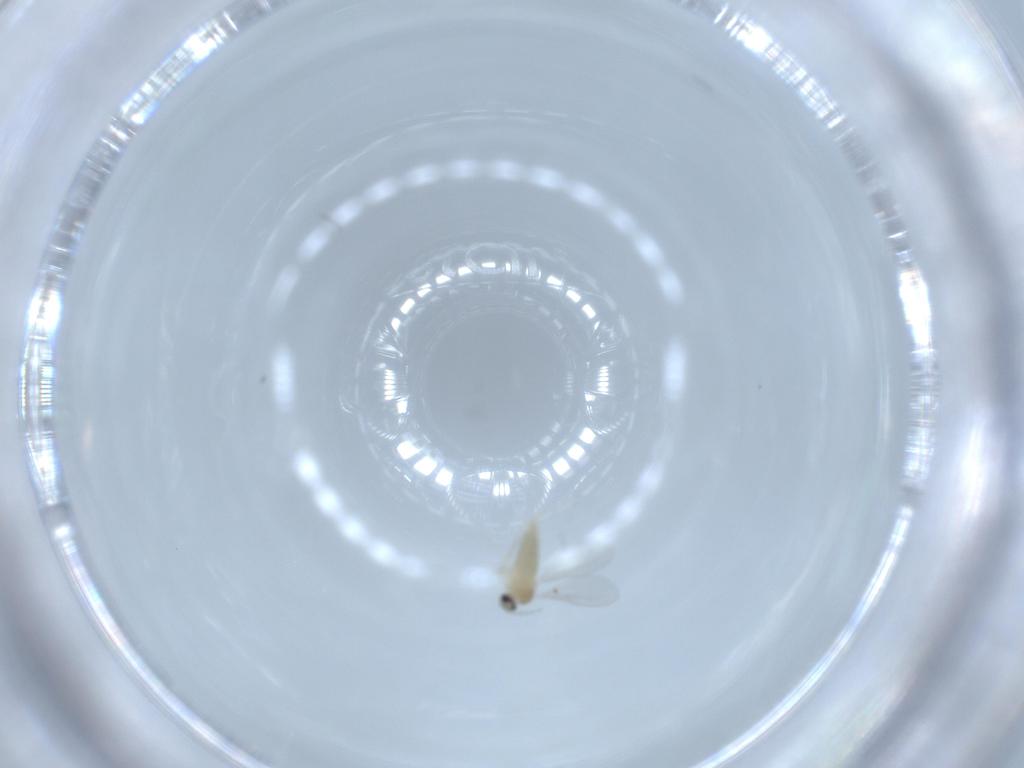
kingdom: Animalia
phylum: Arthropoda
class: Insecta
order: Diptera
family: Cecidomyiidae
